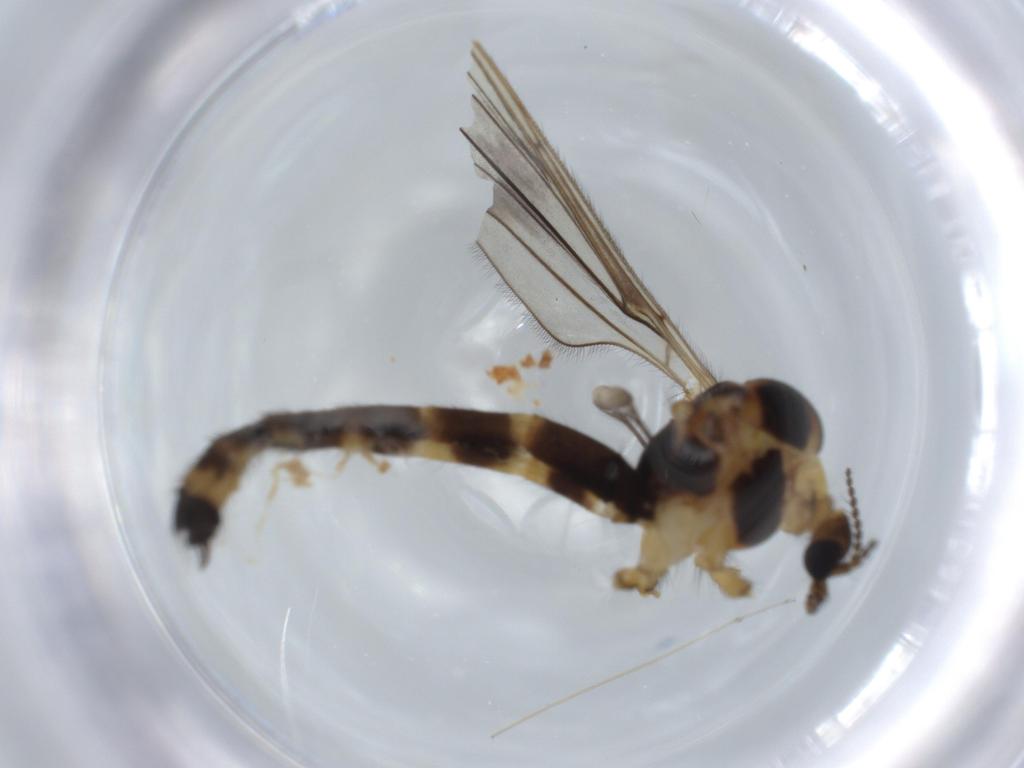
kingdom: Animalia
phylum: Arthropoda
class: Insecta
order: Diptera
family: Limoniidae
